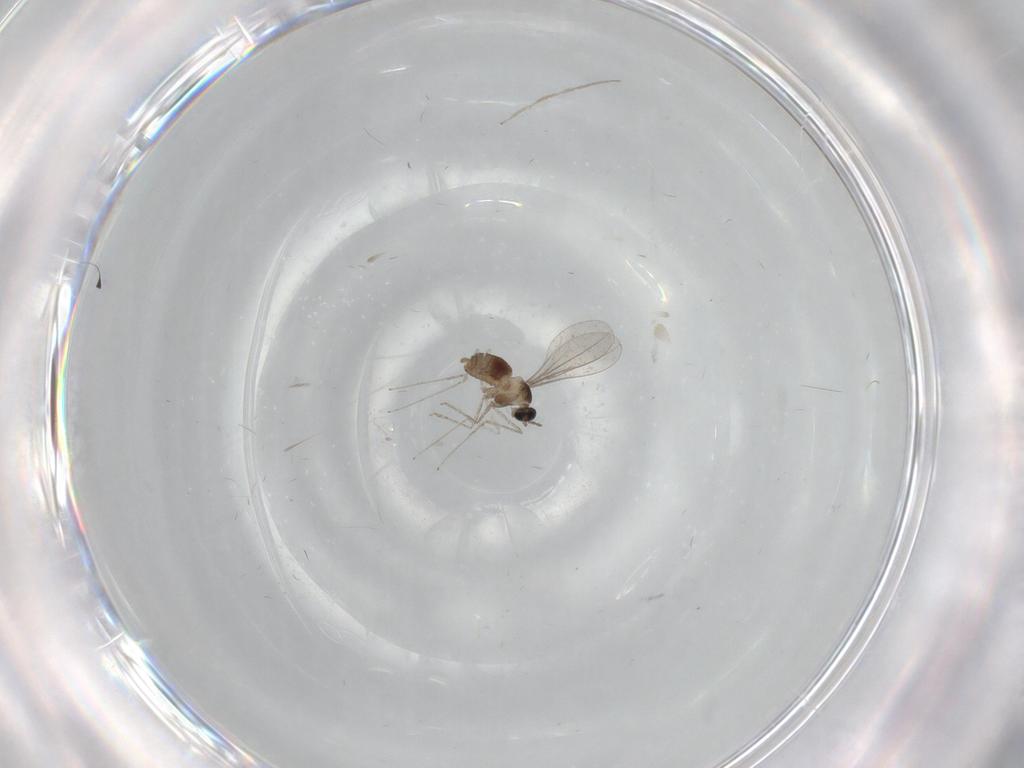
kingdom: Animalia
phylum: Arthropoda
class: Insecta
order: Diptera
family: Cecidomyiidae
